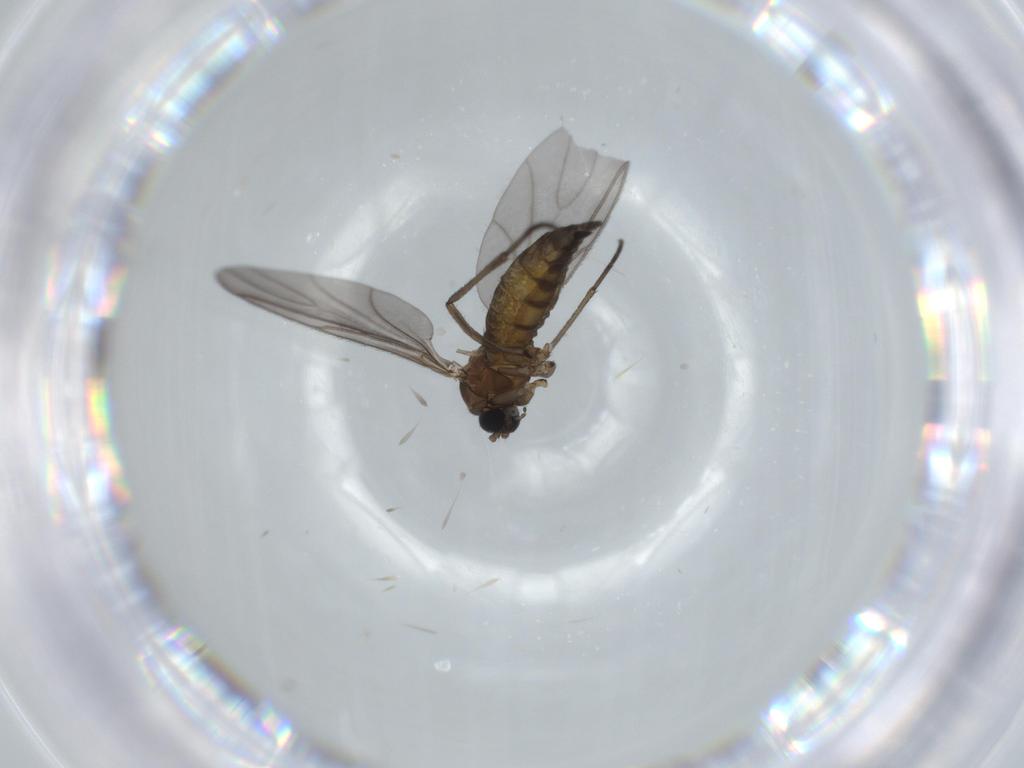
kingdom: Animalia
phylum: Arthropoda
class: Insecta
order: Diptera
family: Sciaridae
